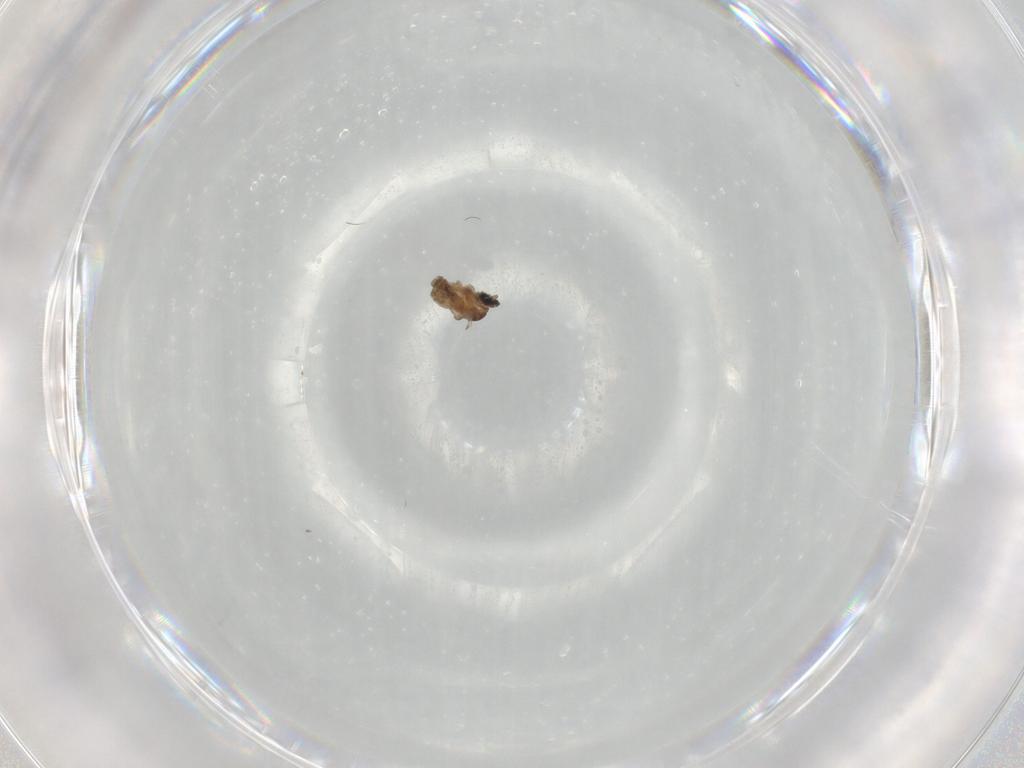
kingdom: Animalia
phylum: Arthropoda
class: Insecta
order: Diptera
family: Cecidomyiidae
